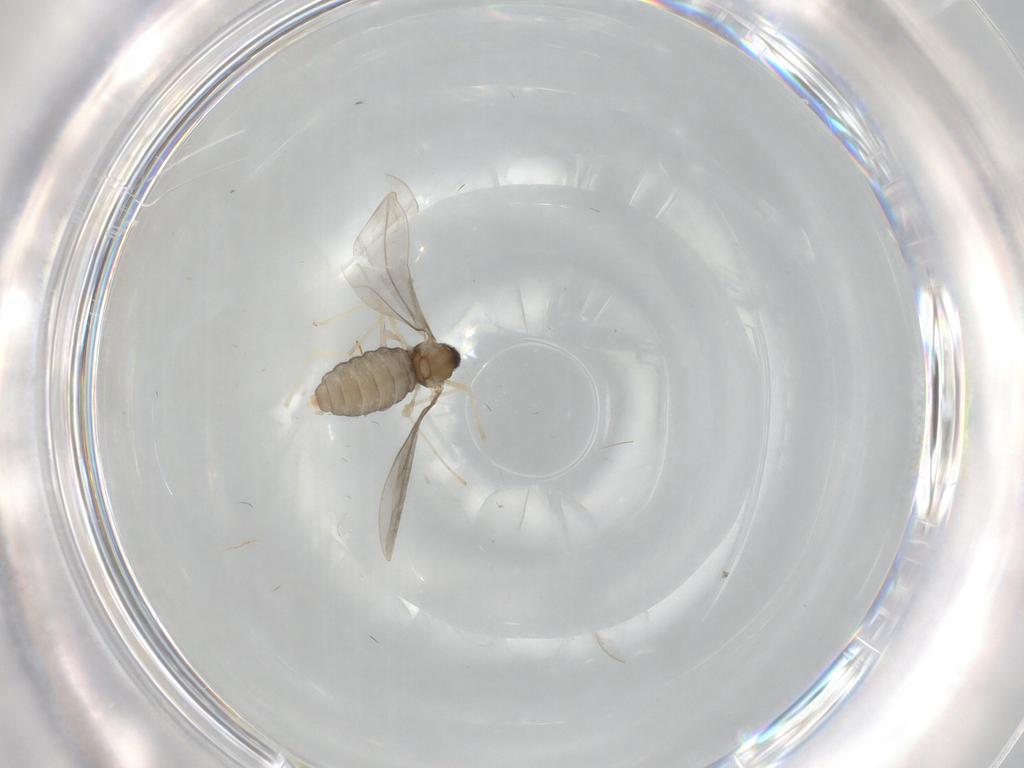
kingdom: Animalia
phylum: Arthropoda
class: Insecta
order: Diptera
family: Cecidomyiidae
